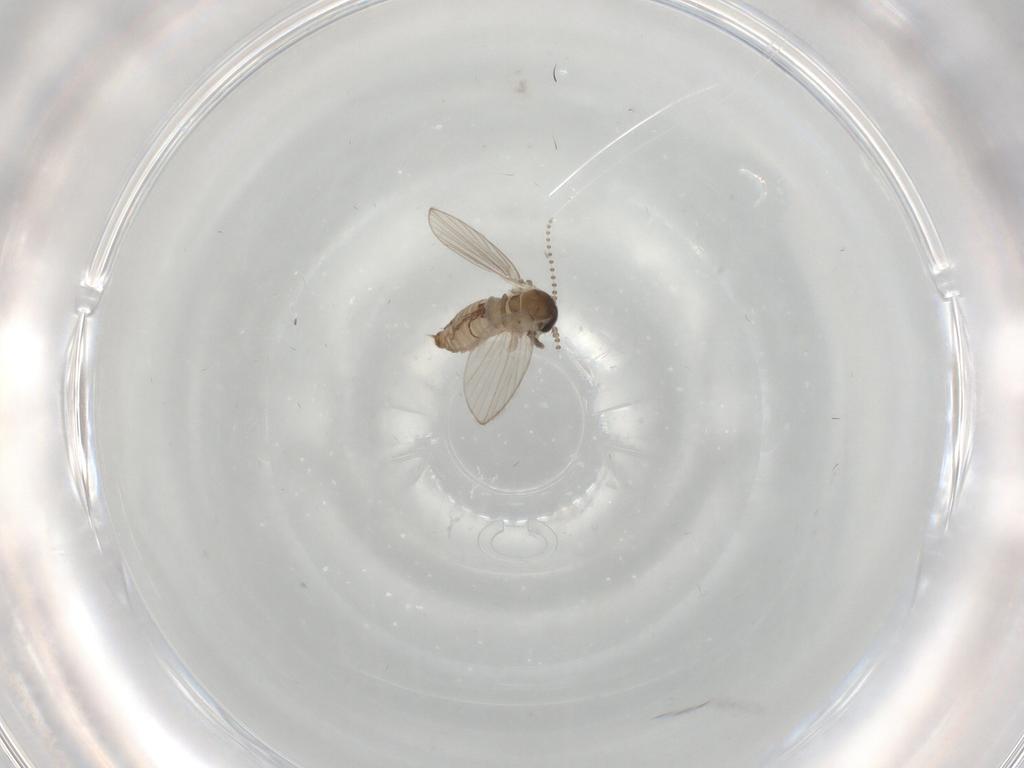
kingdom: Animalia
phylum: Arthropoda
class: Insecta
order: Diptera
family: Psychodidae
